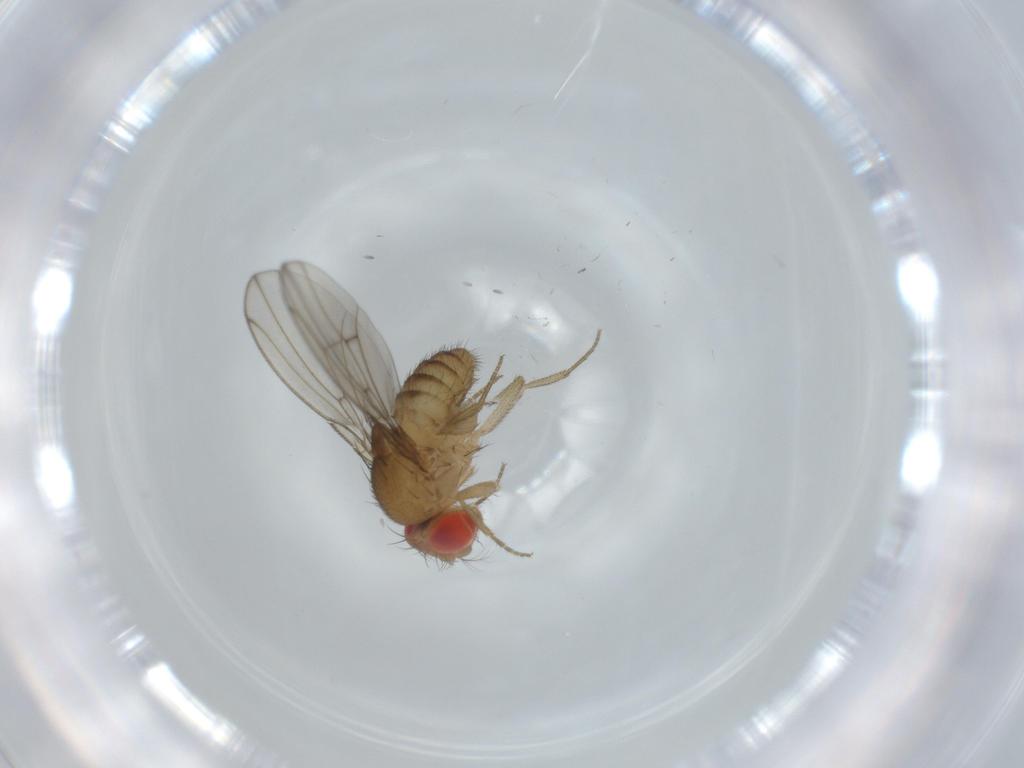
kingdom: Animalia
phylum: Arthropoda
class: Insecta
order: Diptera
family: Drosophilidae
